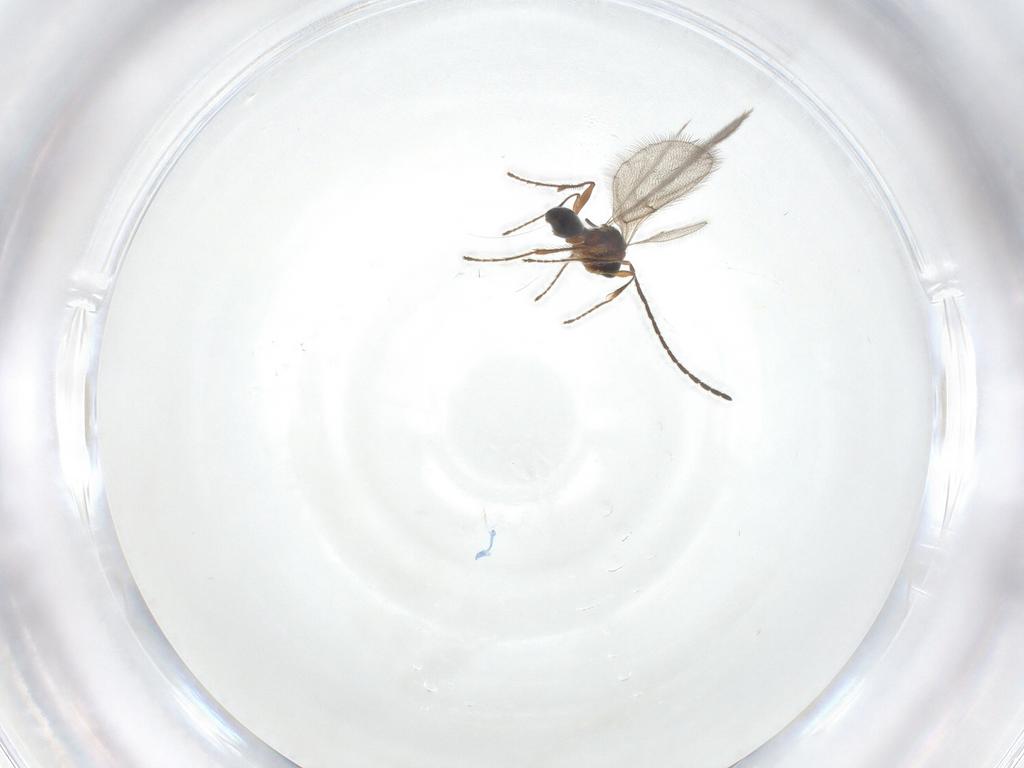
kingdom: Animalia
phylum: Arthropoda
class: Insecta
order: Hymenoptera
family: Diapriidae
